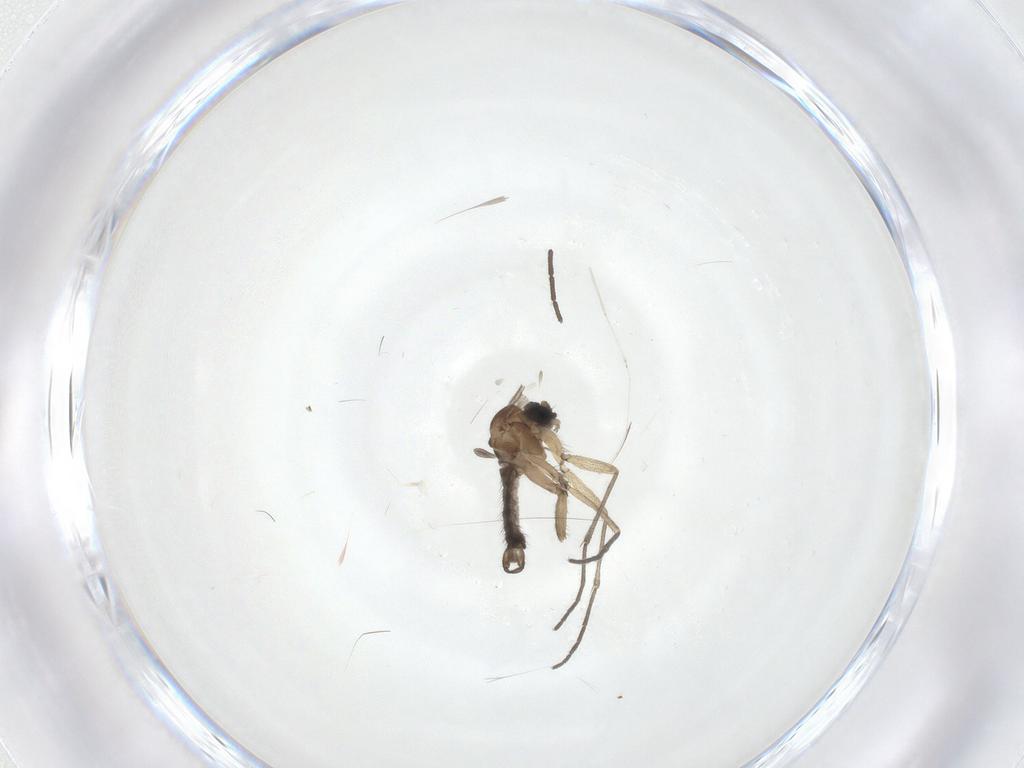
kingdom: Animalia
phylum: Arthropoda
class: Insecta
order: Diptera
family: Sciaridae
